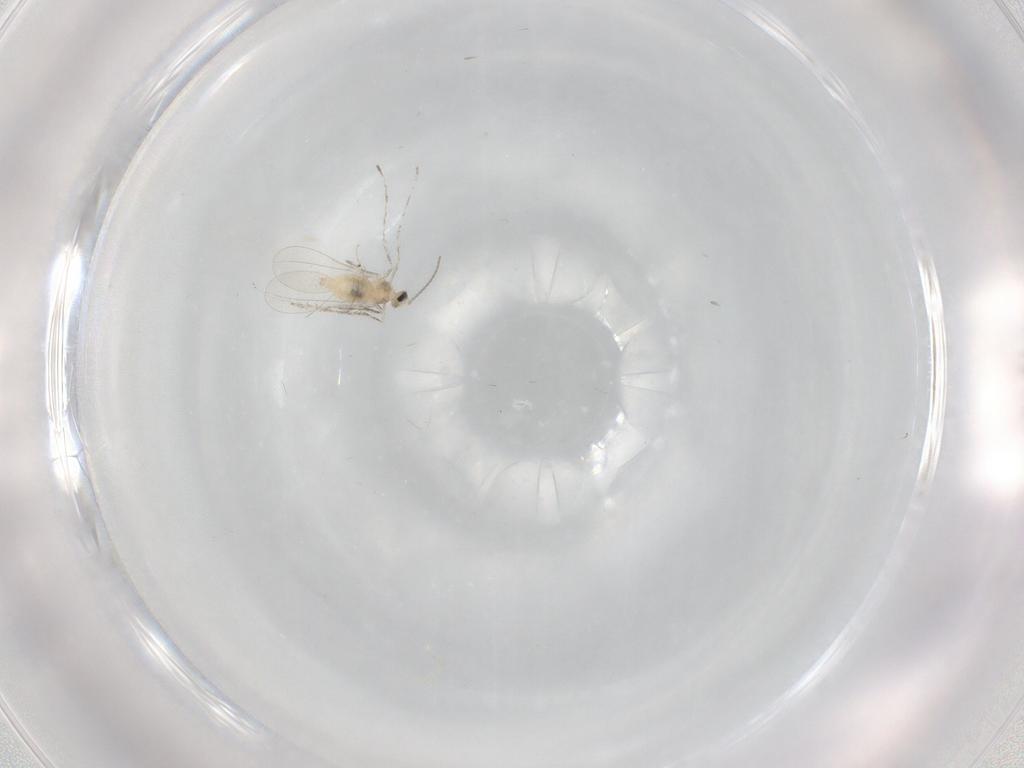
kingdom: Animalia
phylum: Arthropoda
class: Insecta
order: Diptera
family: Cecidomyiidae
